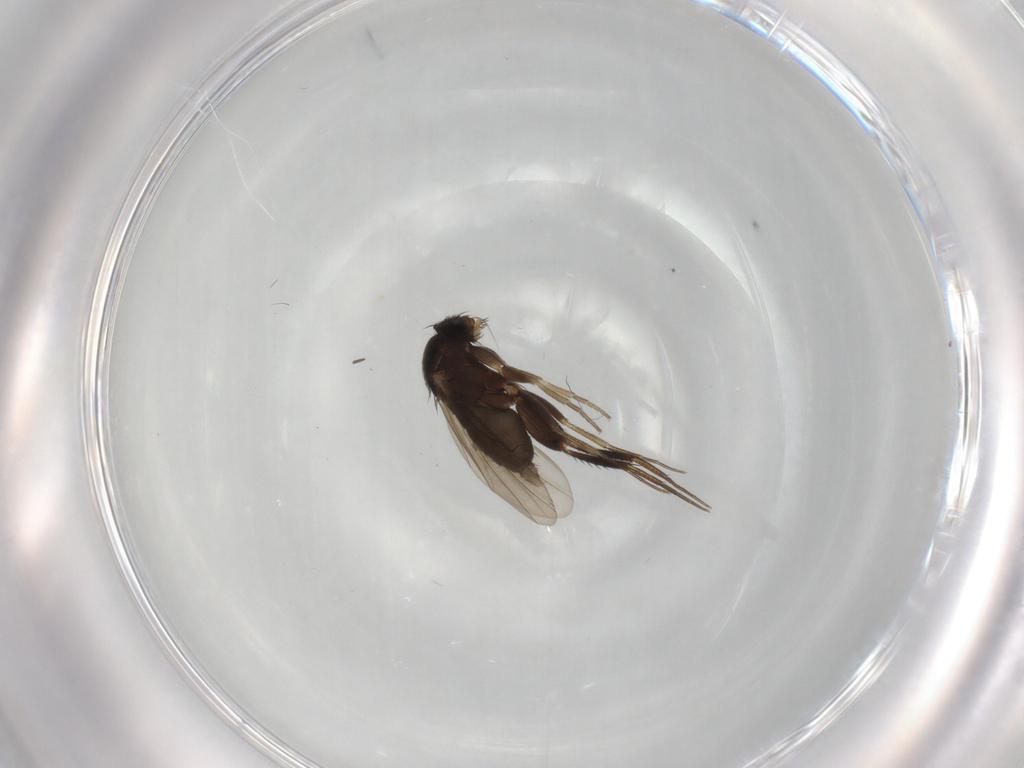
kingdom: Animalia
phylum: Arthropoda
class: Insecta
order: Diptera
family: Phoridae
